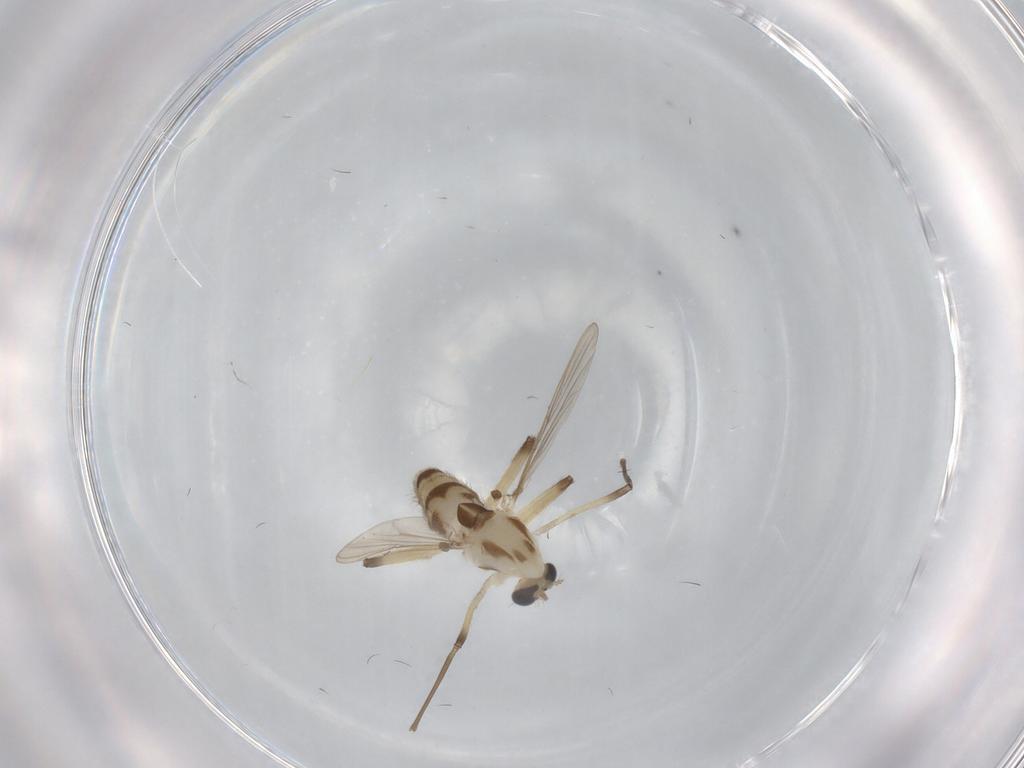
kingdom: Animalia
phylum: Arthropoda
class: Insecta
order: Diptera
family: Chironomidae
